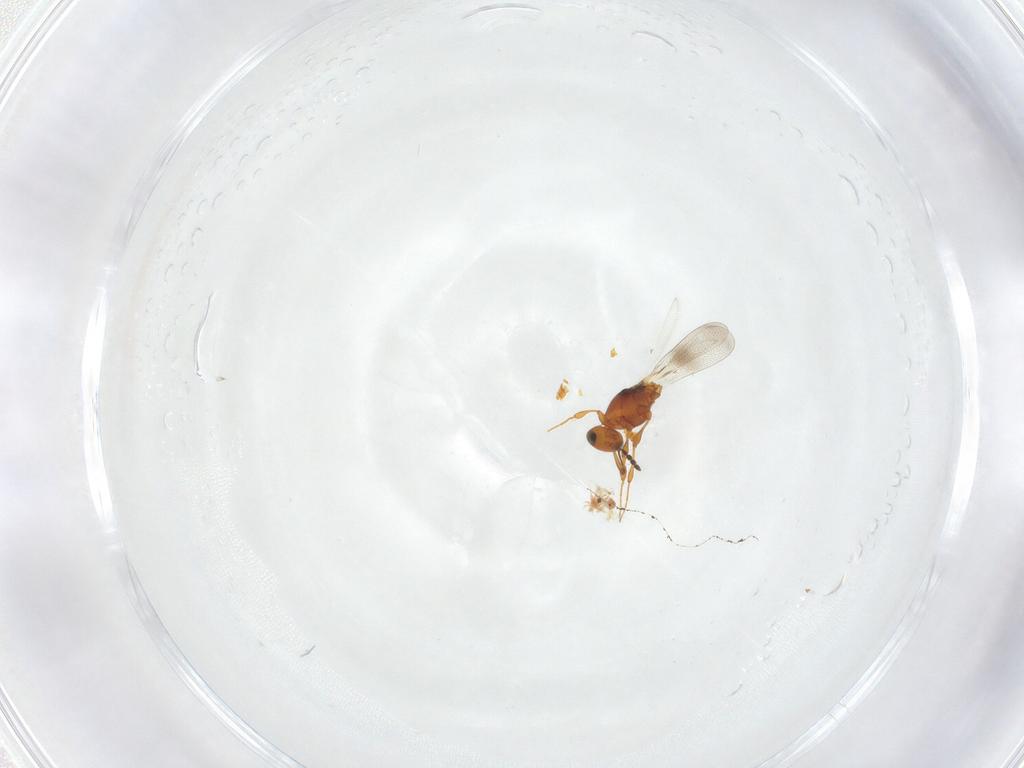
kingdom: Animalia
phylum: Arthropoda
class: Insecta
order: Hymenoptera
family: Platygastridae
